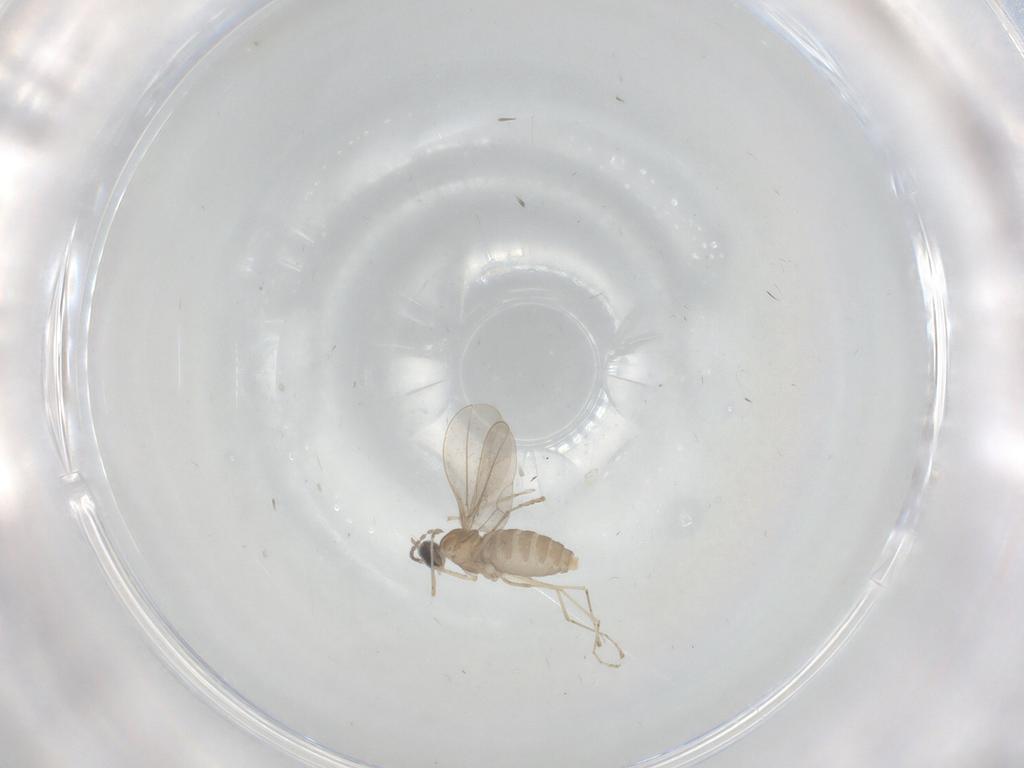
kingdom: Animalia
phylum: Arthropoda
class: Insecta
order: Diptera
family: Cecidomyiidae
